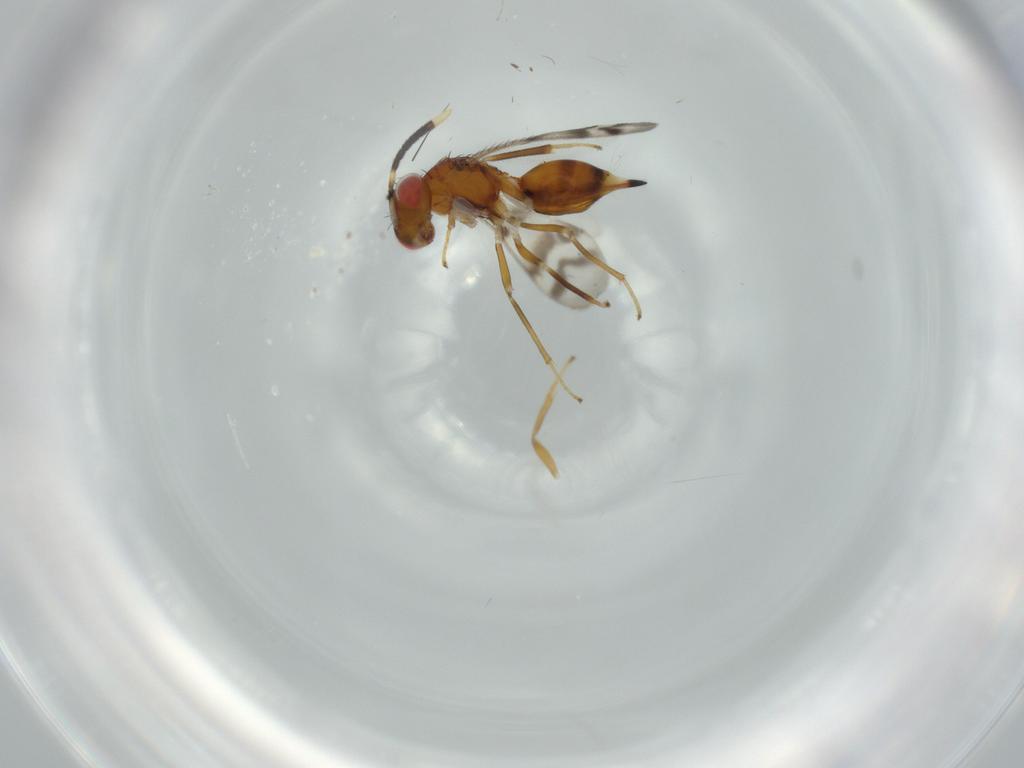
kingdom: Animalia
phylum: Arthropoda
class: Insecta
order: Hymenoptera
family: Diparidae
